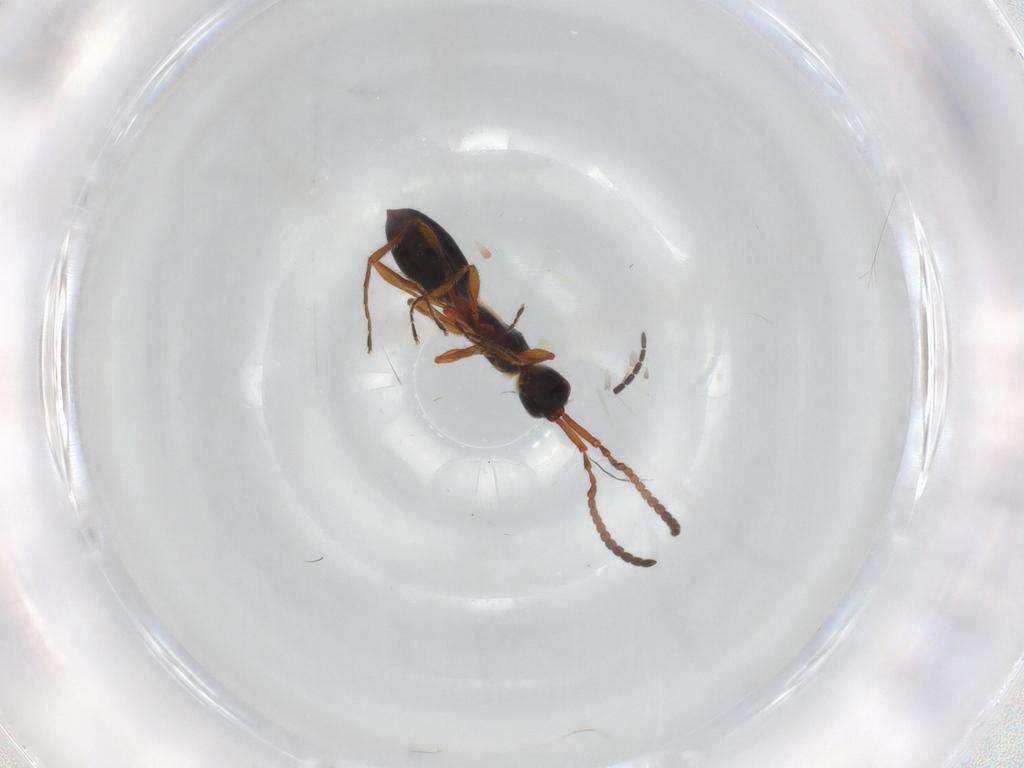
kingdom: Animalia
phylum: Arthropoda
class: Insecta
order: Hymenoptera
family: Diapriidae
